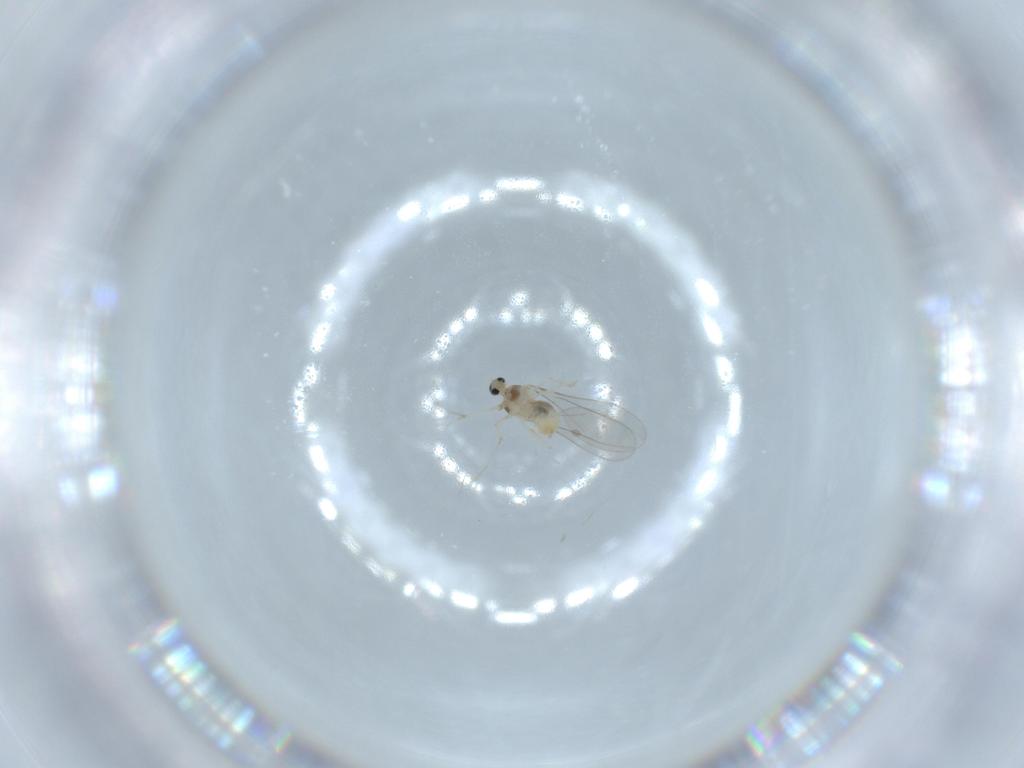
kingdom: Animalia
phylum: Arthropoda
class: Insecta
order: Diptera
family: Cecidomyiidae
